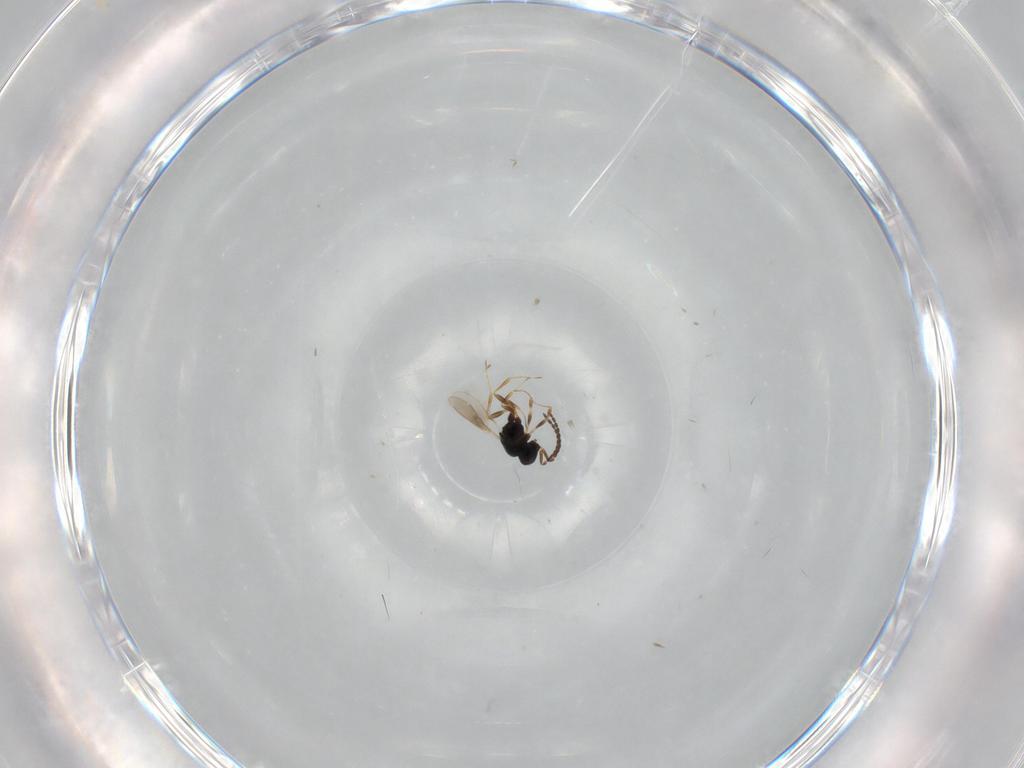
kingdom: Animalia
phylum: Arthropoda
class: Insecta
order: Hymenoptera
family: Scelionidae
